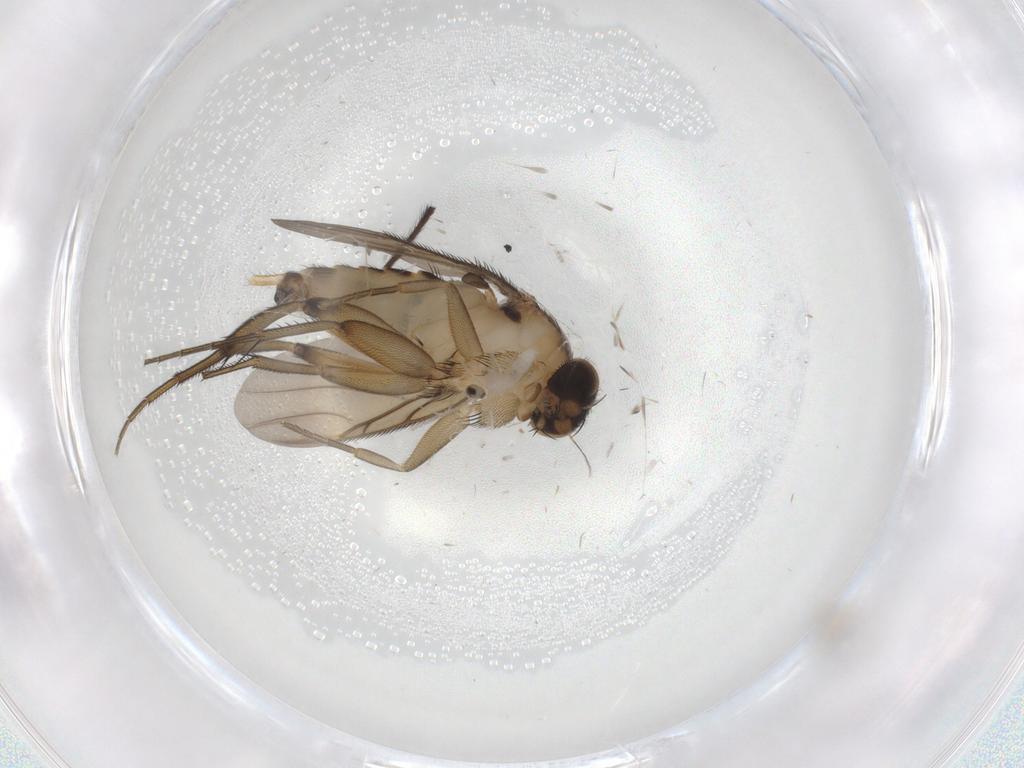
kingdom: Animalia
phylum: Arthropoda
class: Insecta
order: Diptera
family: Phoridae
